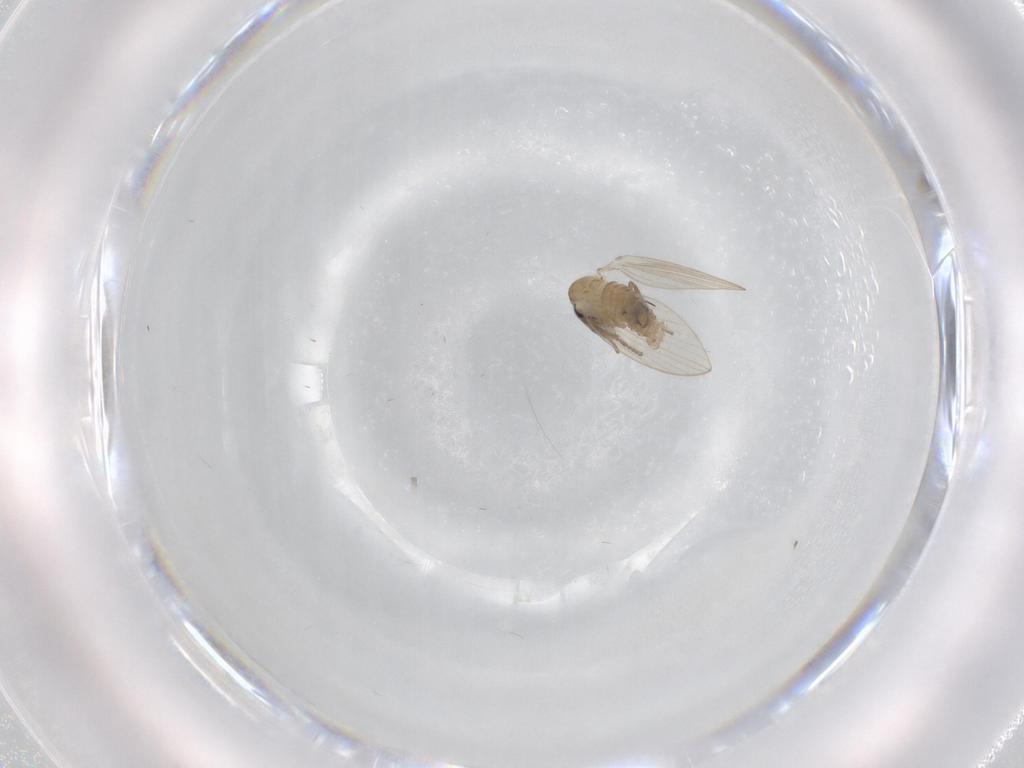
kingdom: Animalia
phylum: Arthropoda
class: Insecta
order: Diptera
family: Psychodidae
